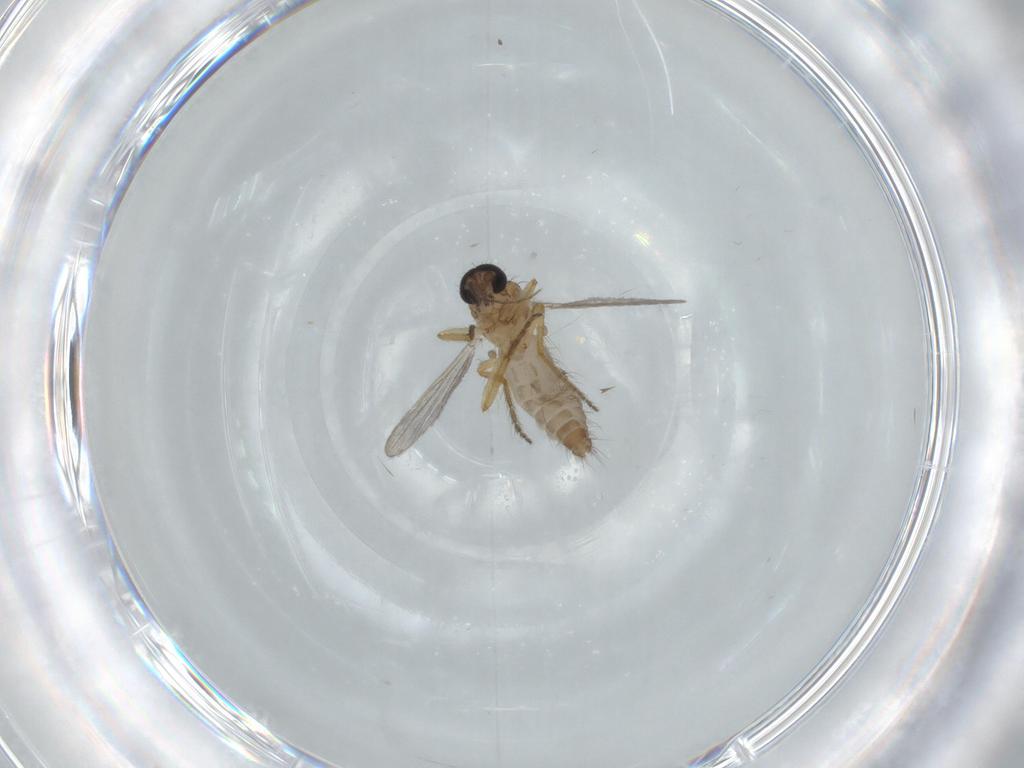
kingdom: Animalia
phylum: Arthropoda
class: Insecta
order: Diptera
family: Cecidomyiidae
